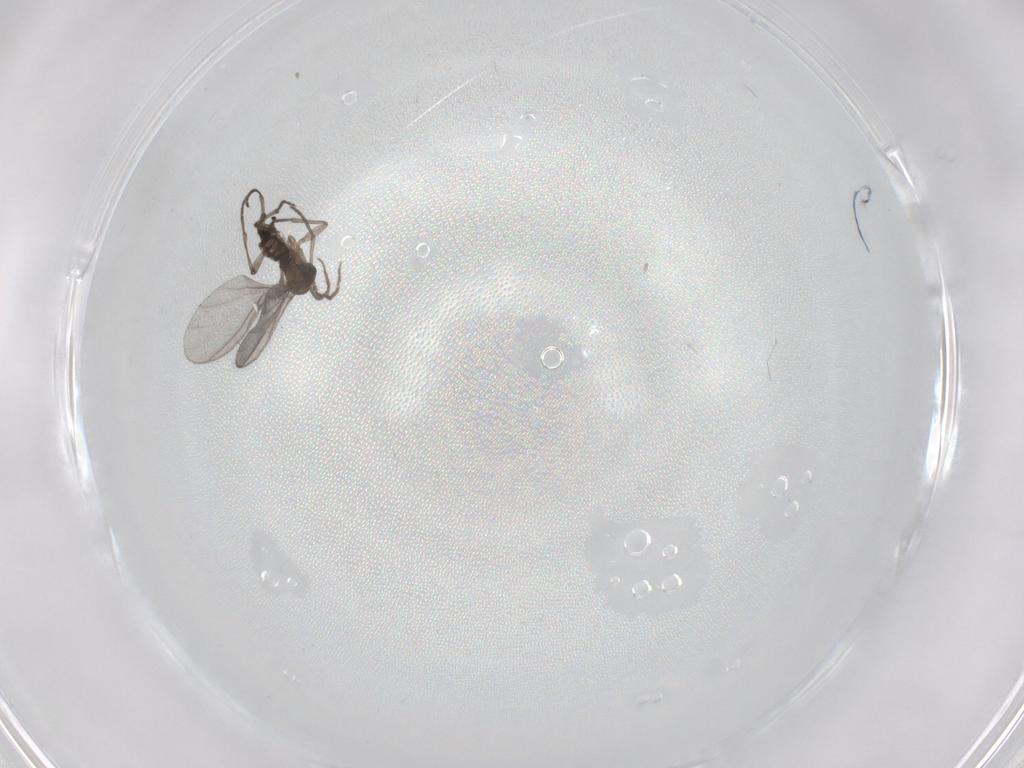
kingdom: Animalia
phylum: Arthropoda
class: Insecta
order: Diptera
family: Sciaridae
